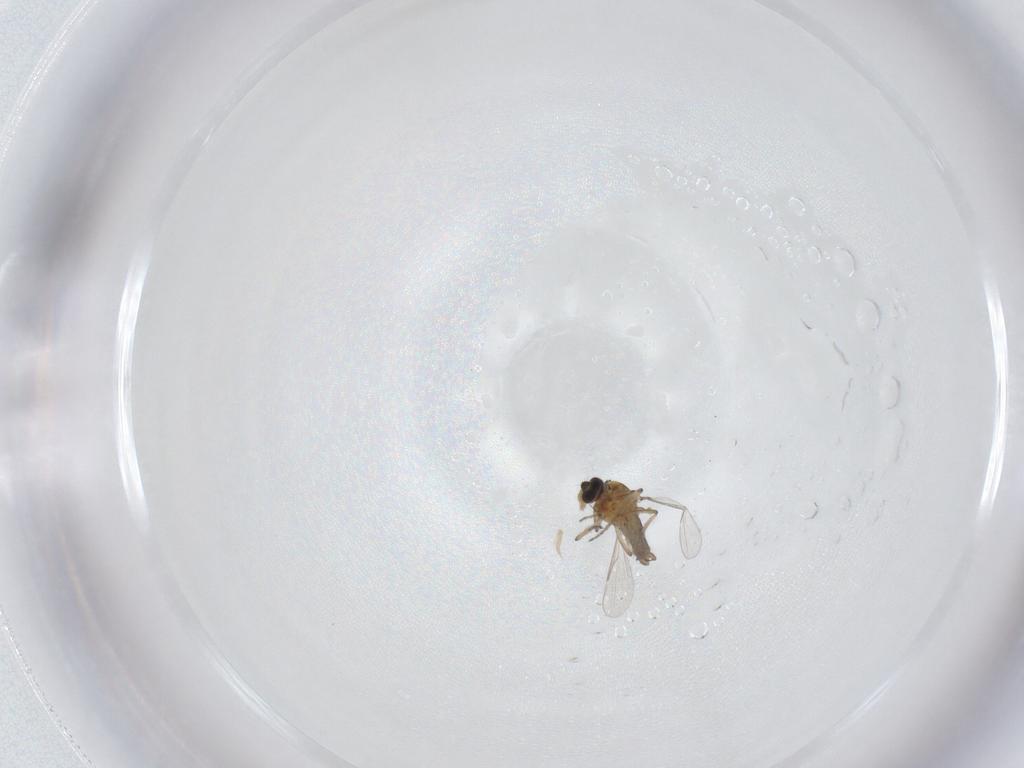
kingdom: Animalia
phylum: Arthropoda
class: Insecta
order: Diptera
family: Ceratopogonidae
